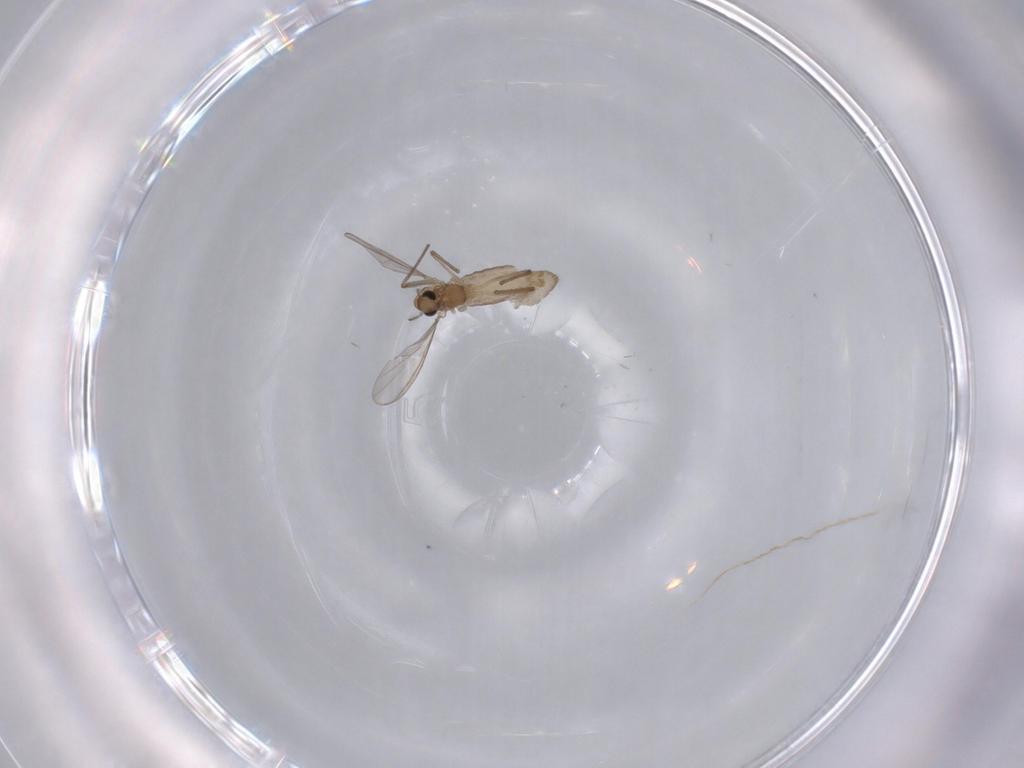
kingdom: Animalia
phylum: Arthropoda
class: Insecta
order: Diptera
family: Chironomidae
